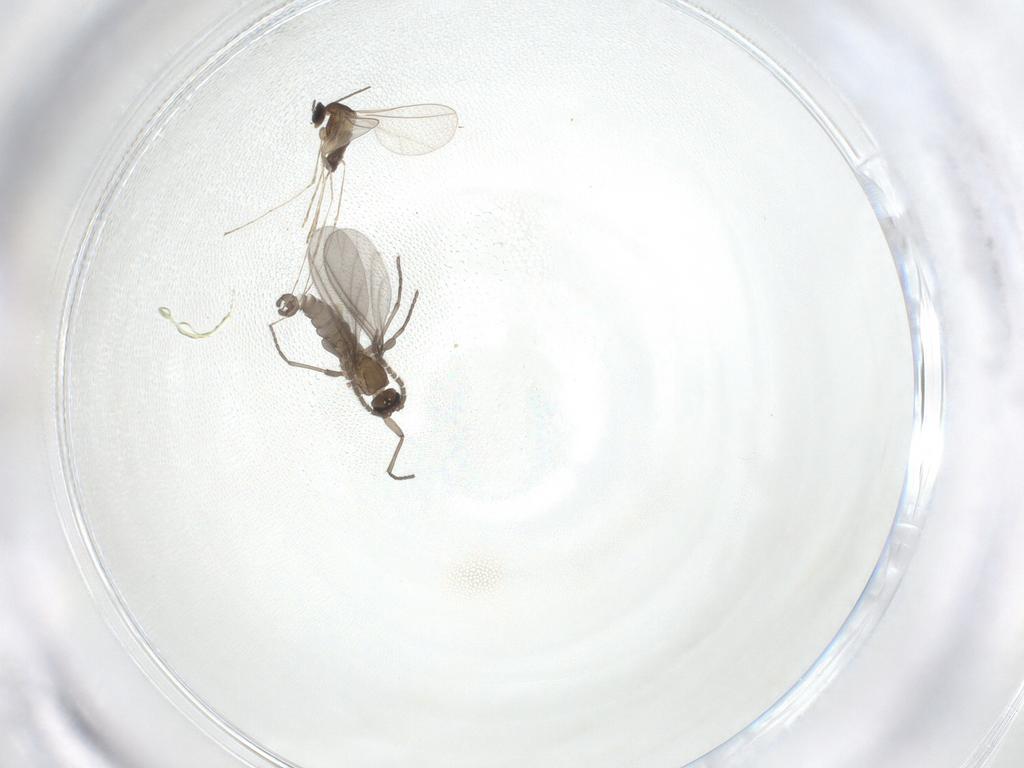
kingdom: Animalia
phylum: Arthropoda
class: Insecta
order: Diptera
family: Sciaridae
